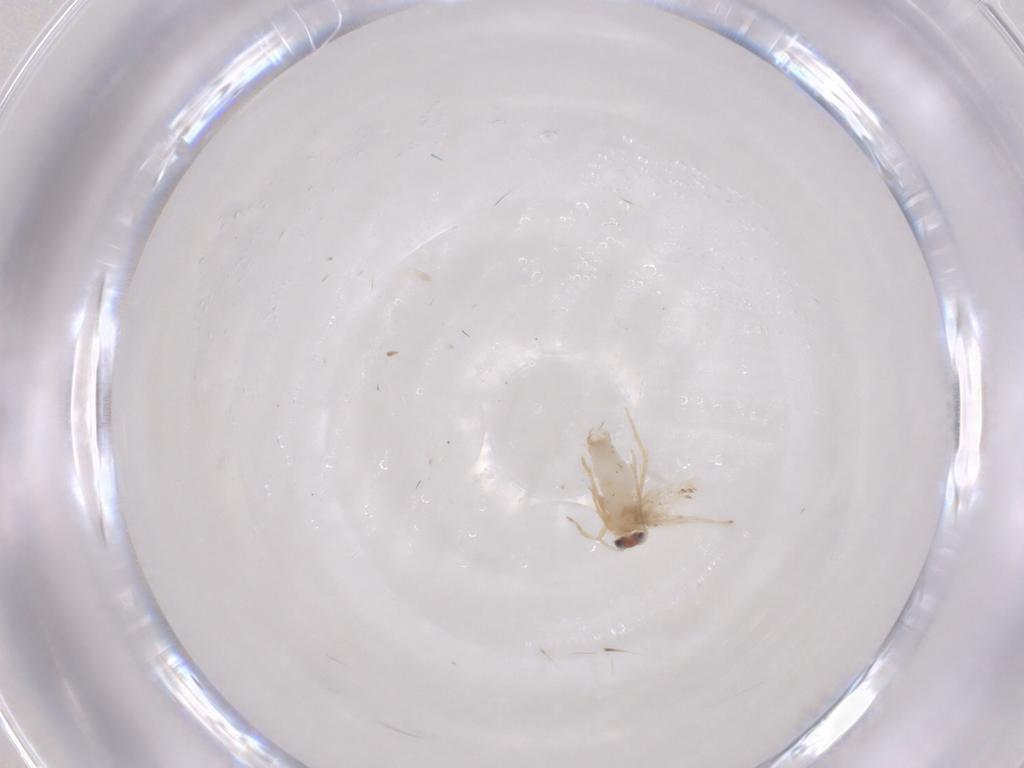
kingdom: Animalia
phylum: Arthropoda
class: Insecta
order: Lepidoptera
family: Nepticulidae
